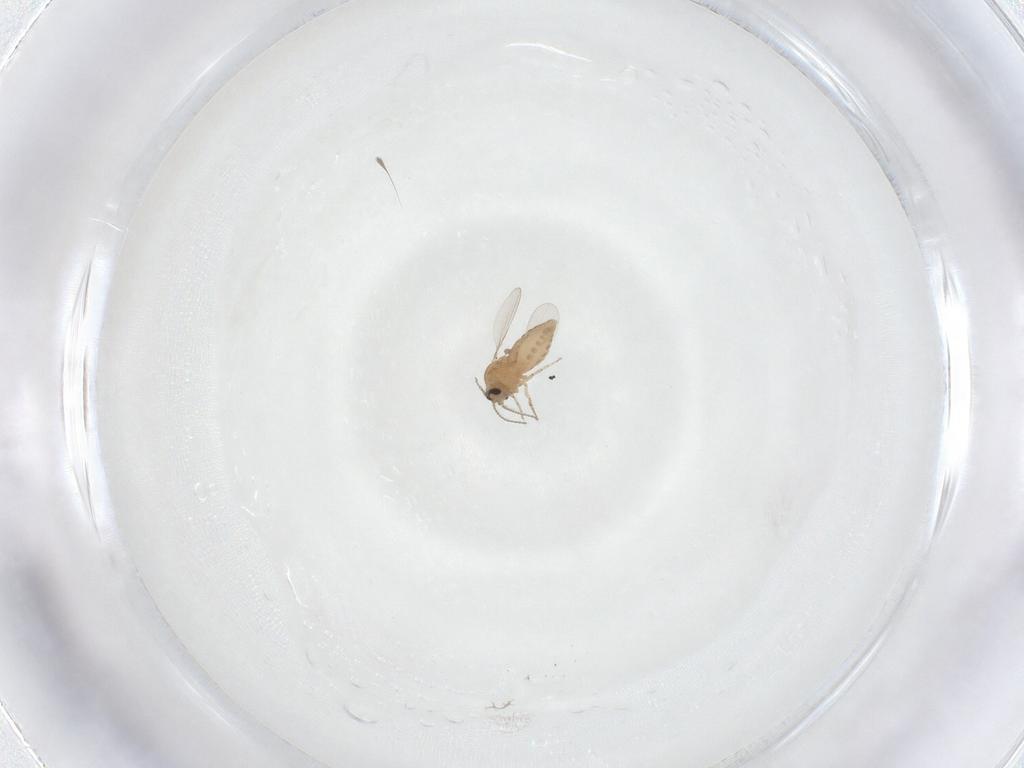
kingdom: Animalia
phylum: Arthropoda
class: Insecta
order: Diptera
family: Ceratopogonidae
